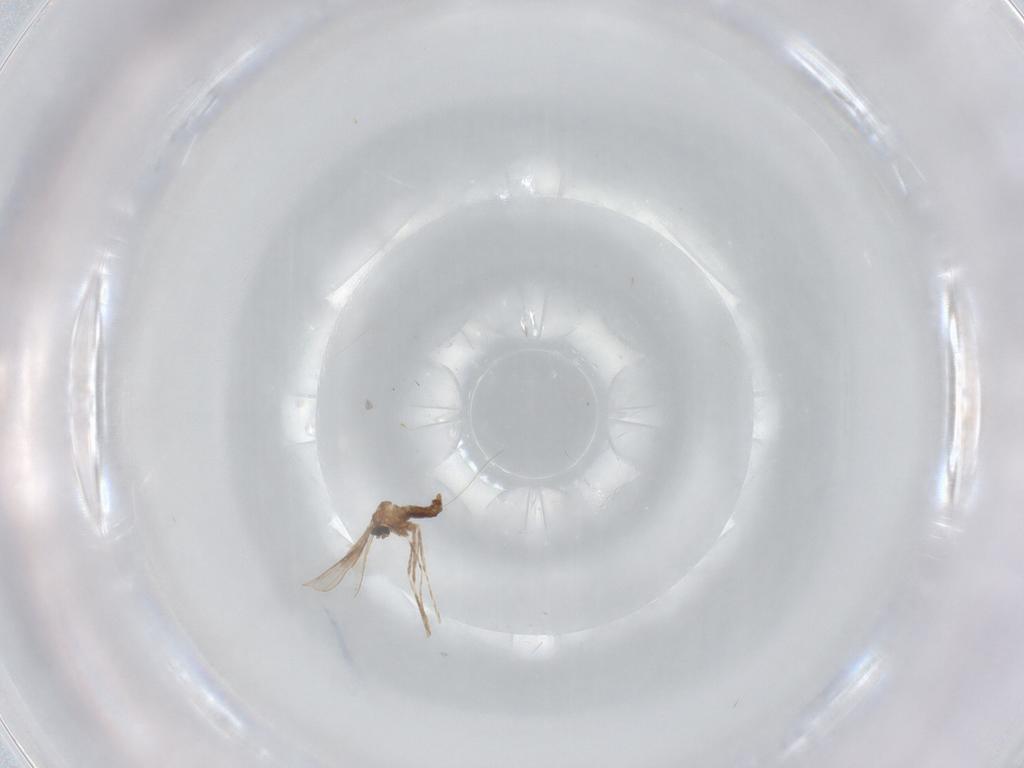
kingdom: Animalia
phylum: Arthropoda
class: Insecta
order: Diptera
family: Cecidomyiidae
